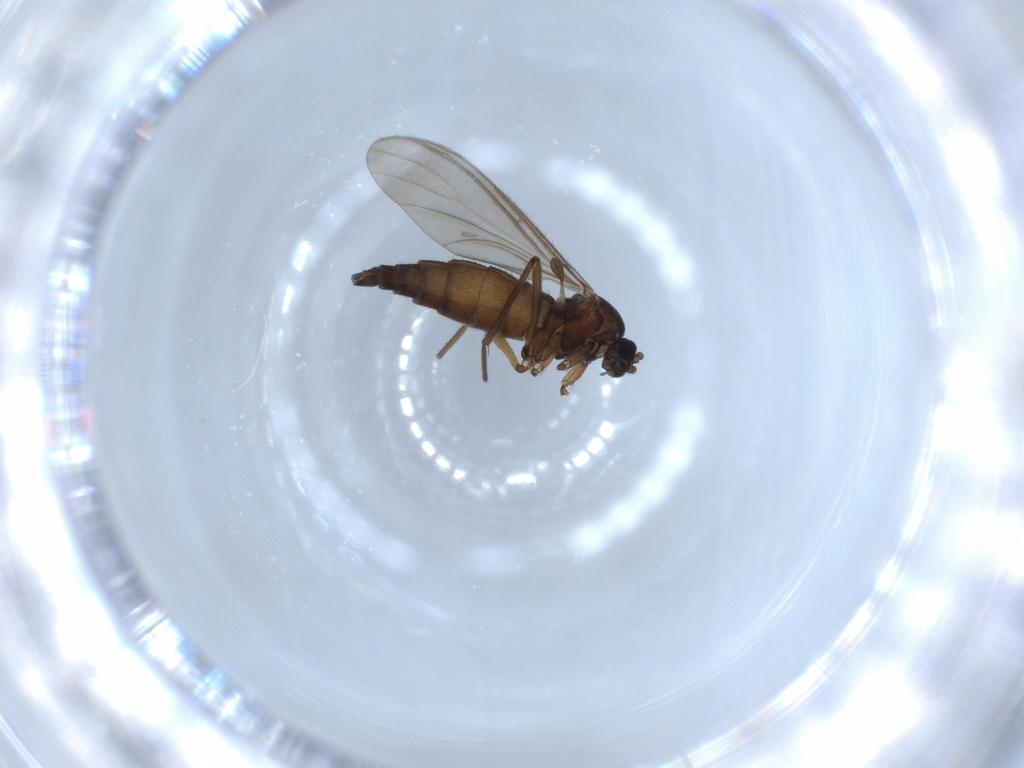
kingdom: Animalia
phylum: Arthropoda
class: Insecta
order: Diptera
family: Sciaridae
